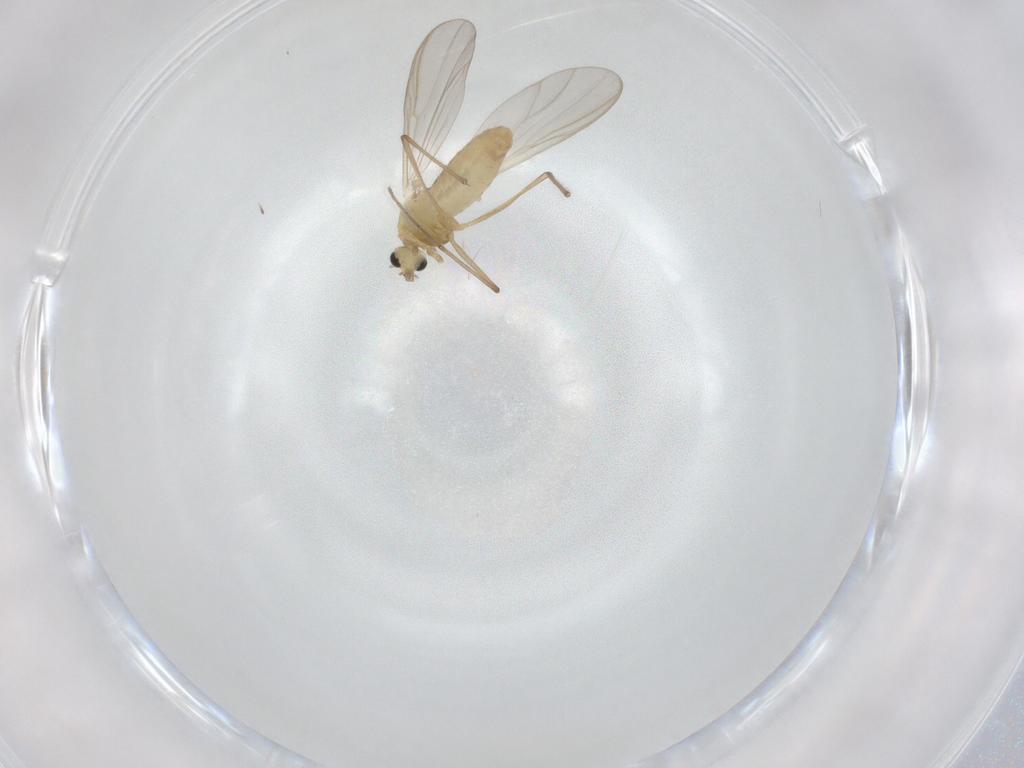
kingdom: Animalia
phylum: Arthropoda
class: Insecta
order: Diptera
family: Chironomidae
